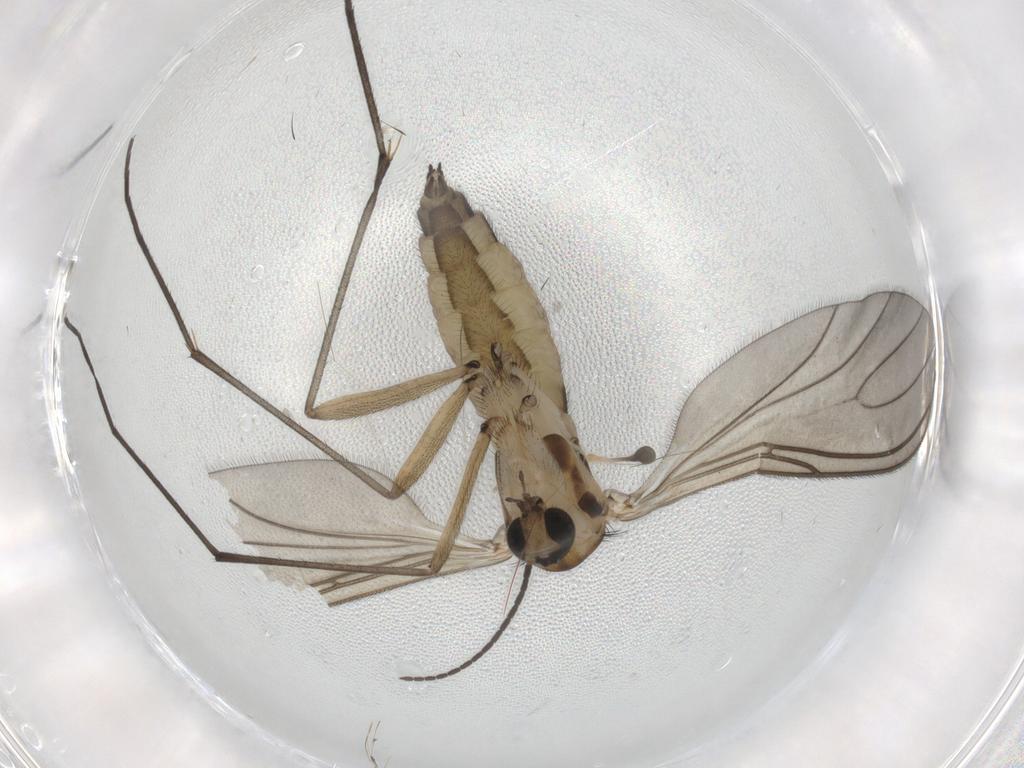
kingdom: Animalia
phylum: Arthropoda
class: Insecta
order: Diptera
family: Sciaridae
